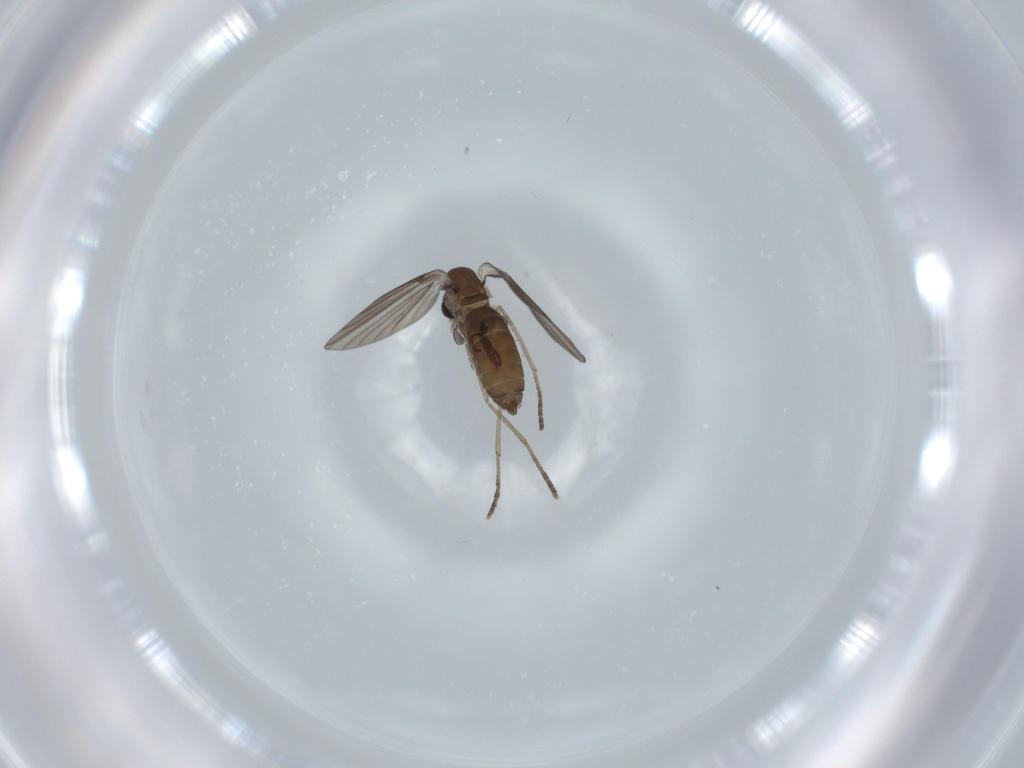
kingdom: Animalia
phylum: Arthropoda
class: Insecta
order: Diptera
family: Psychodidae
